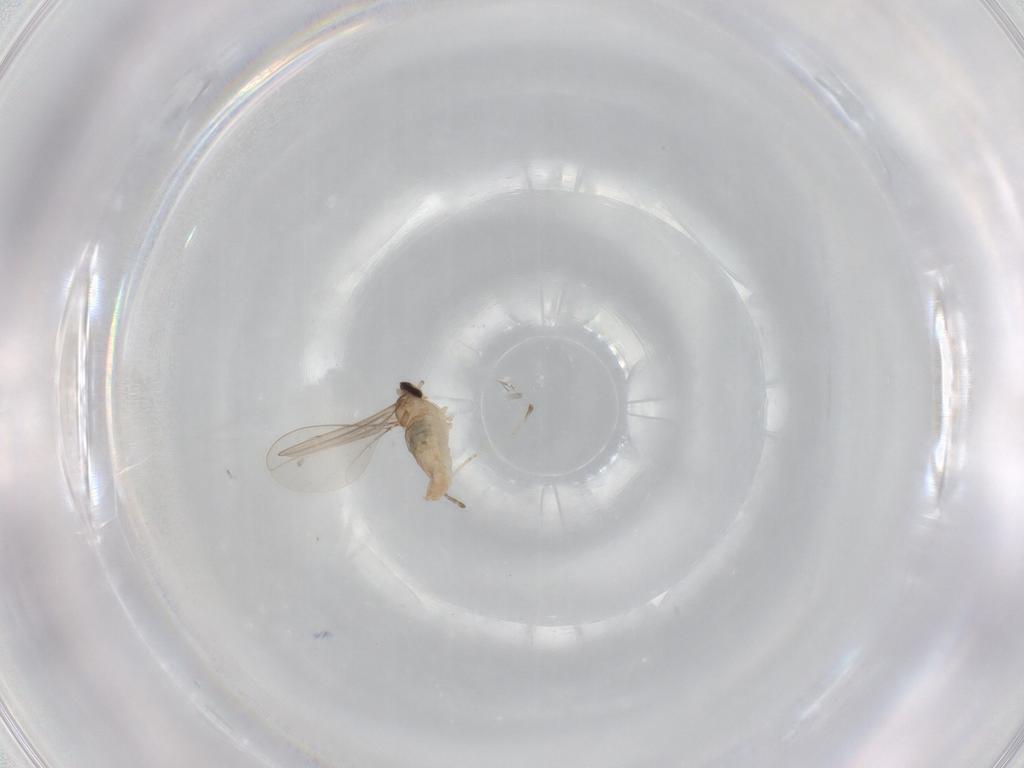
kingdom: Animalia
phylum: Arthropoda
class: Insecta
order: Diptera
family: Cecidomyiidae
